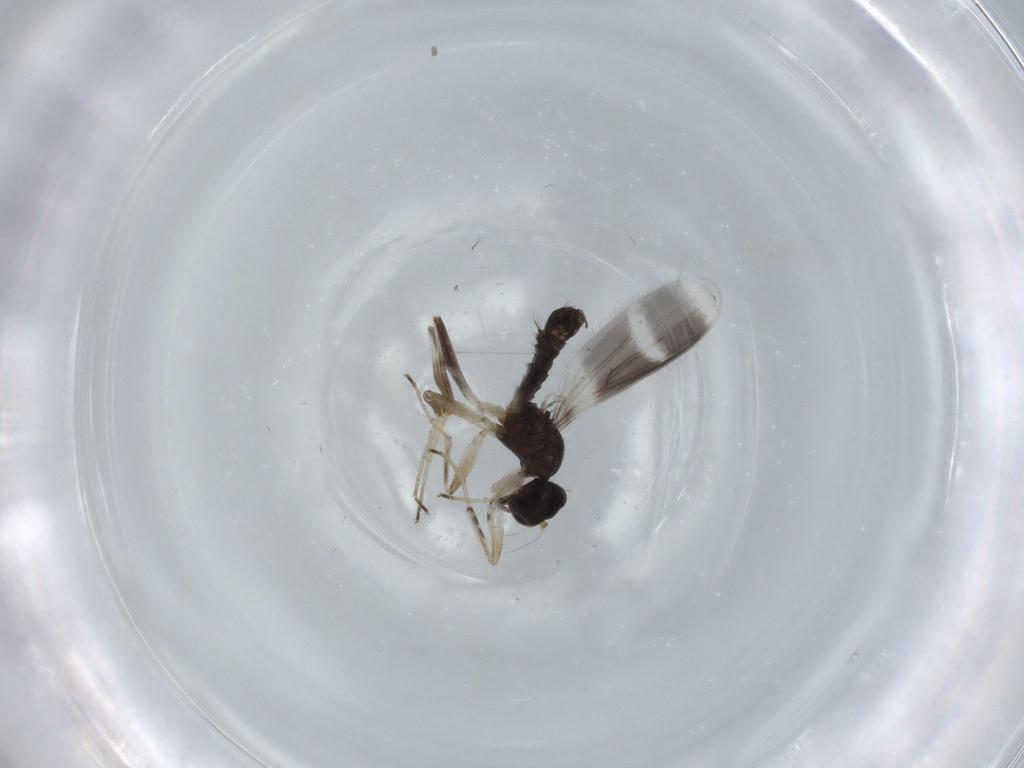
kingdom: Animalia
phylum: Arthropoda
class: Insecta
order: Diptera
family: Hybotidae
